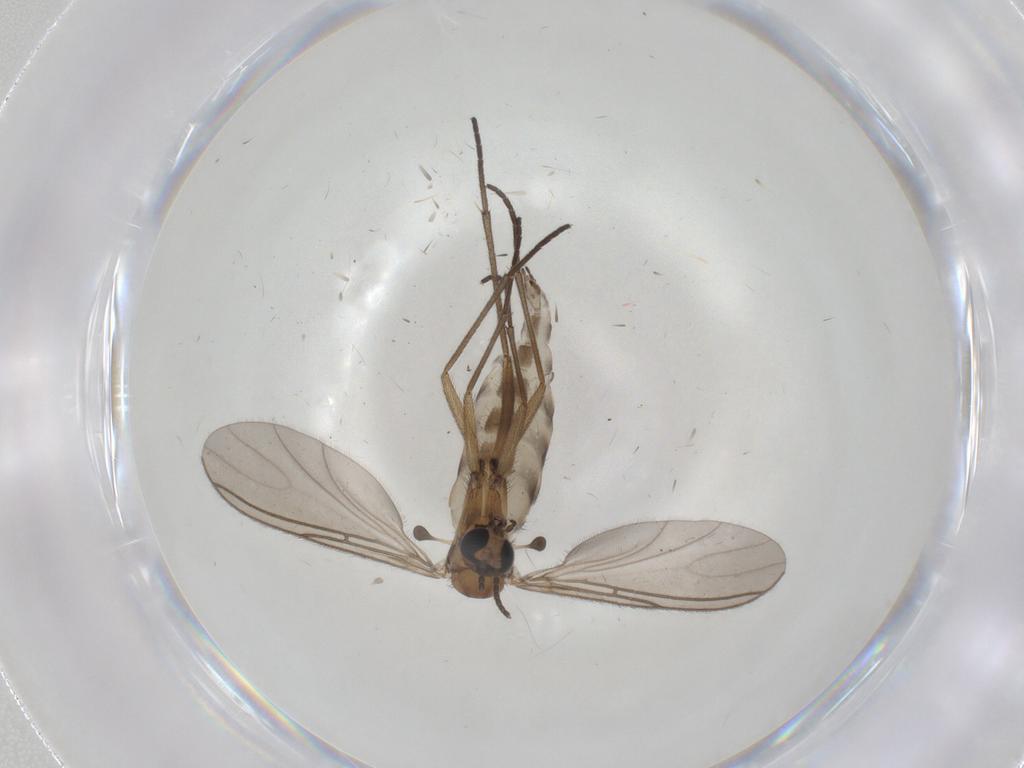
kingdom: Animalia
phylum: Arthropoda
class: Insecta
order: Diptera
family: Sciaridae
